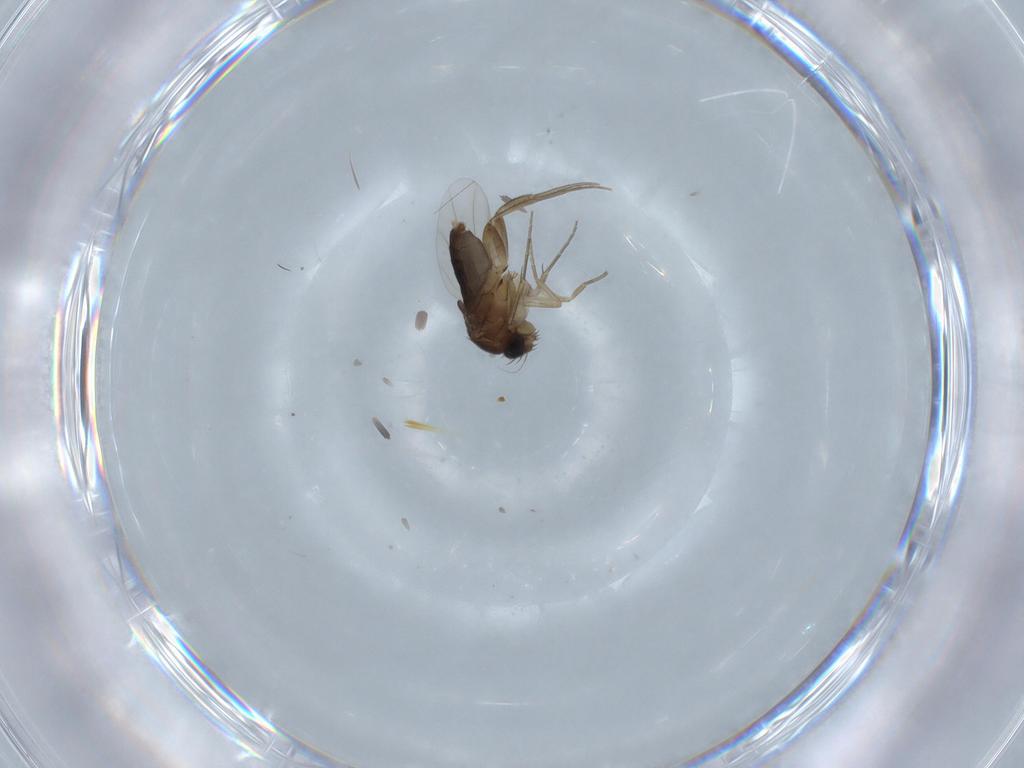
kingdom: Animalia
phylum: Arthropoda
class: Insecta
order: Diptera
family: Phoridae
